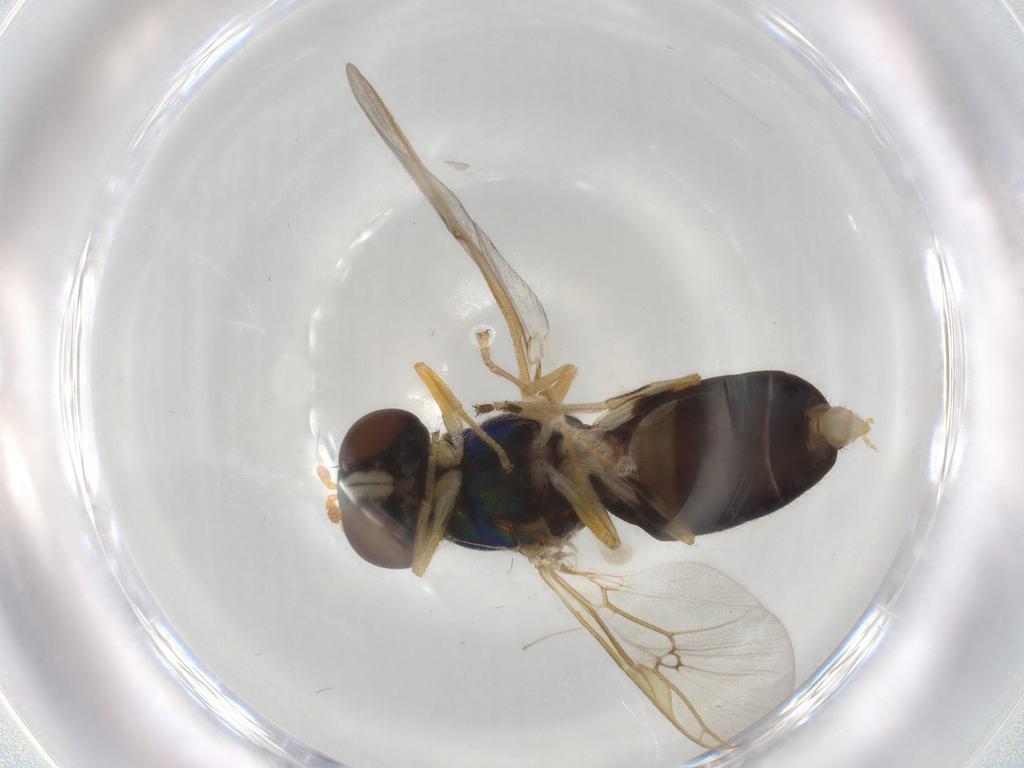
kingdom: Animalia
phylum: Arthropoda
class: Insecta
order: Diptera
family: Cecidomyiidae
